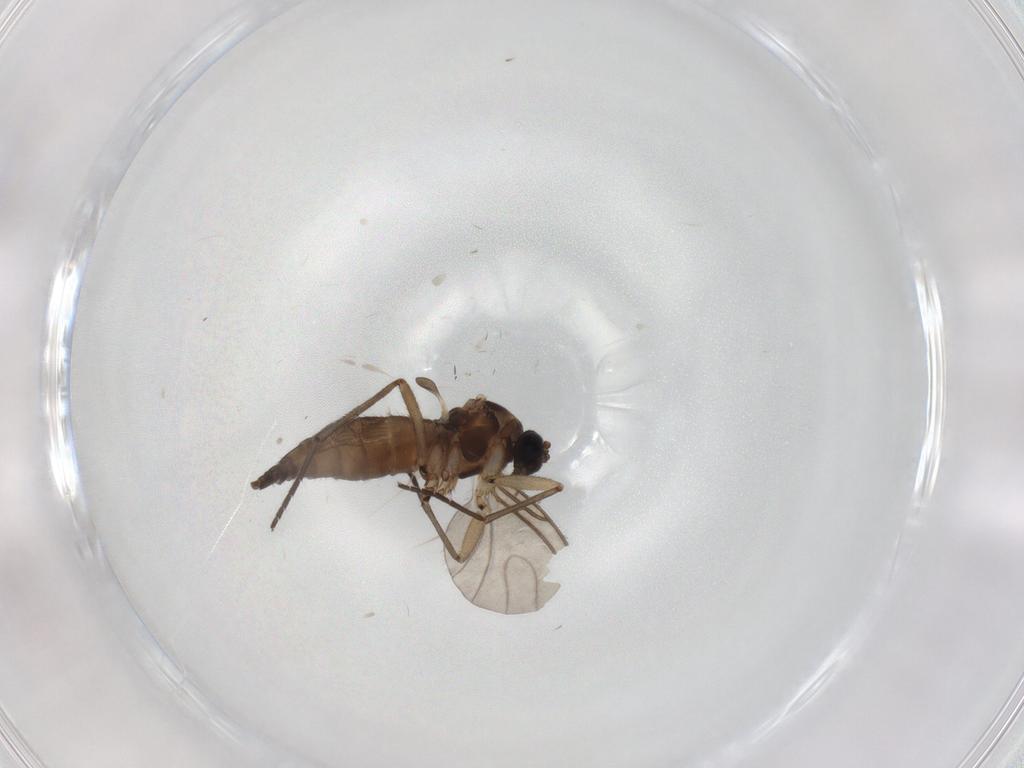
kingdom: Animalia
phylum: Arthropoda
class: Insecta
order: Diptera
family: Sciaridae
